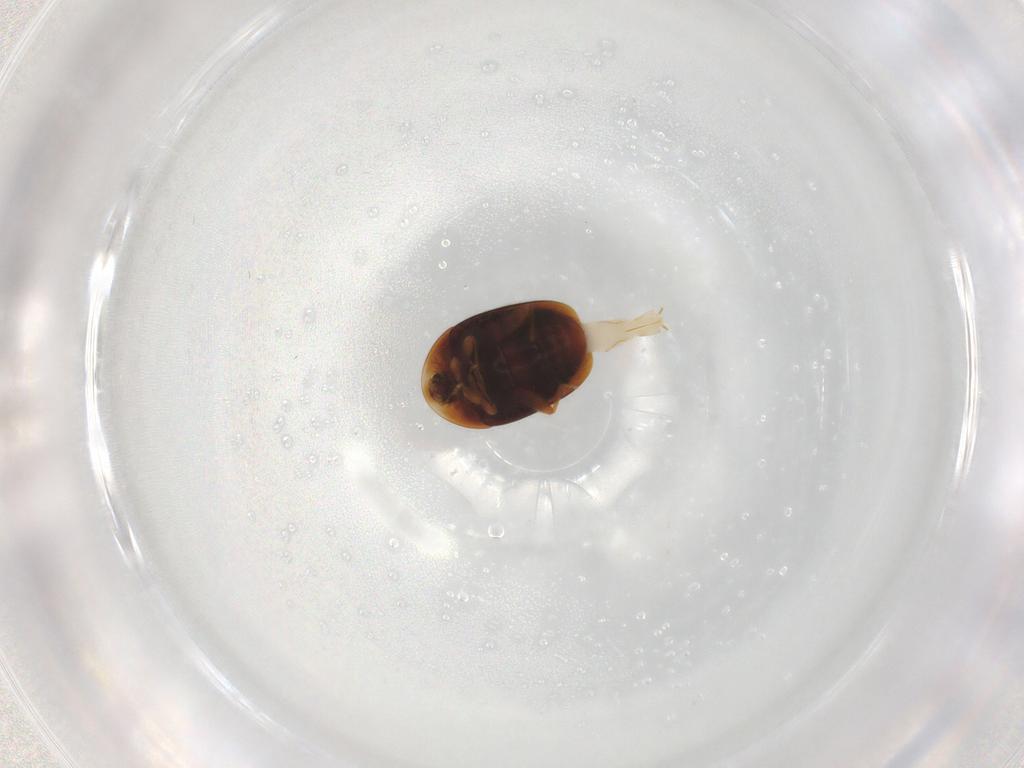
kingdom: Animalia
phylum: Arthropoda
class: Insecta
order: Coleoptera
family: Corylophidae
